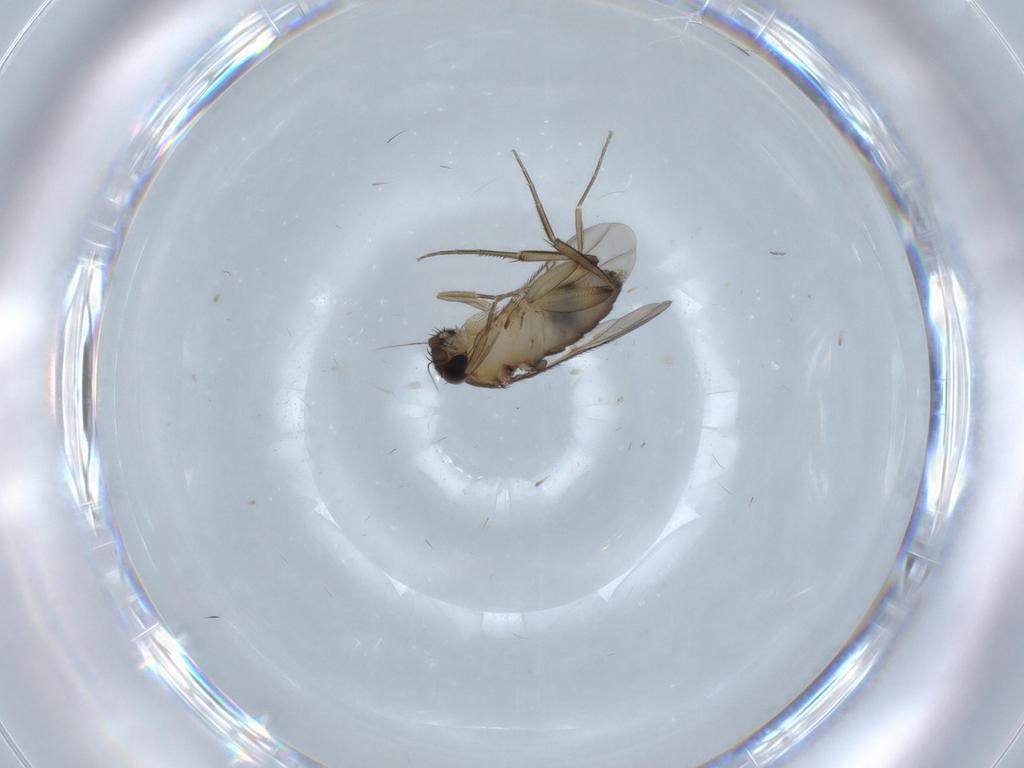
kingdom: Animalia
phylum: Arthropoda
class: Insecta
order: Diptera
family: Phoridae
